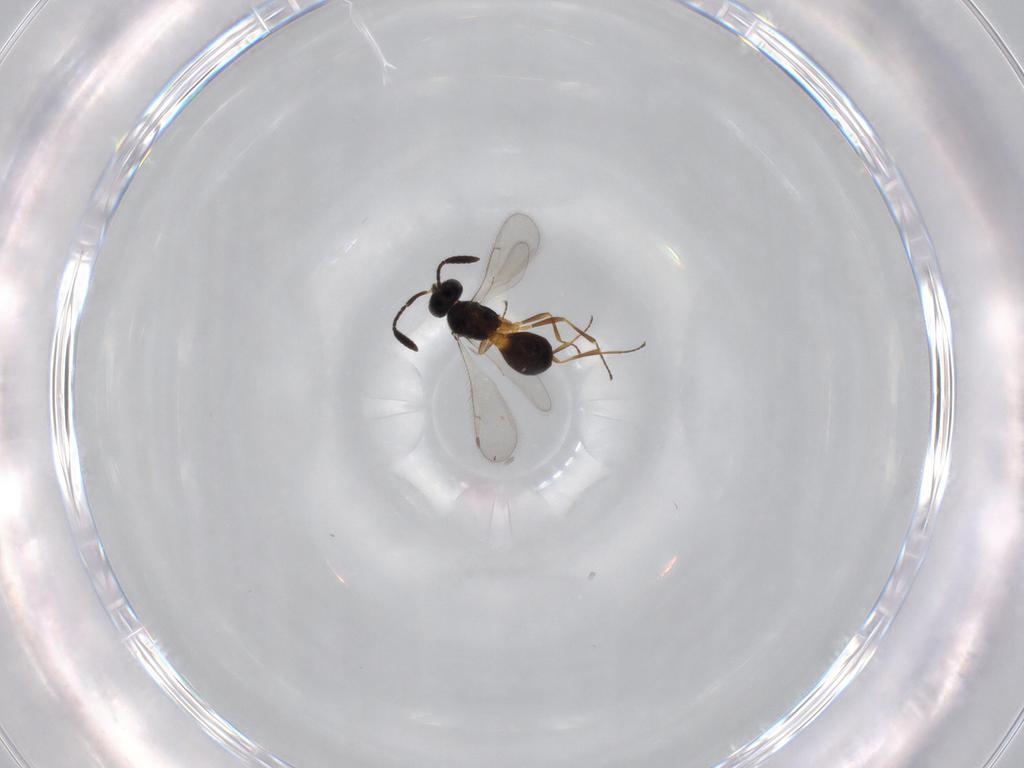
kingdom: Animalia
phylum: Arthropoda
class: Insecta
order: Hymenoptera
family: Scelionidae
